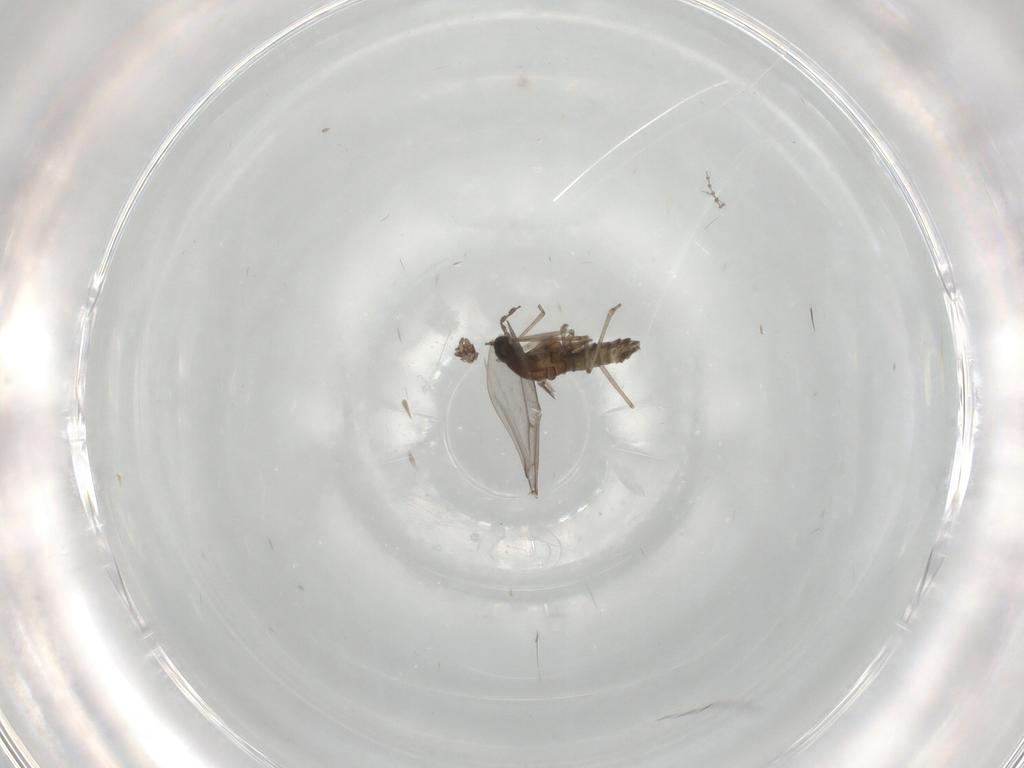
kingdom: Animalia
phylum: Arthropoda
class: Insecta
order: Diptera
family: Cecidomyiidae
